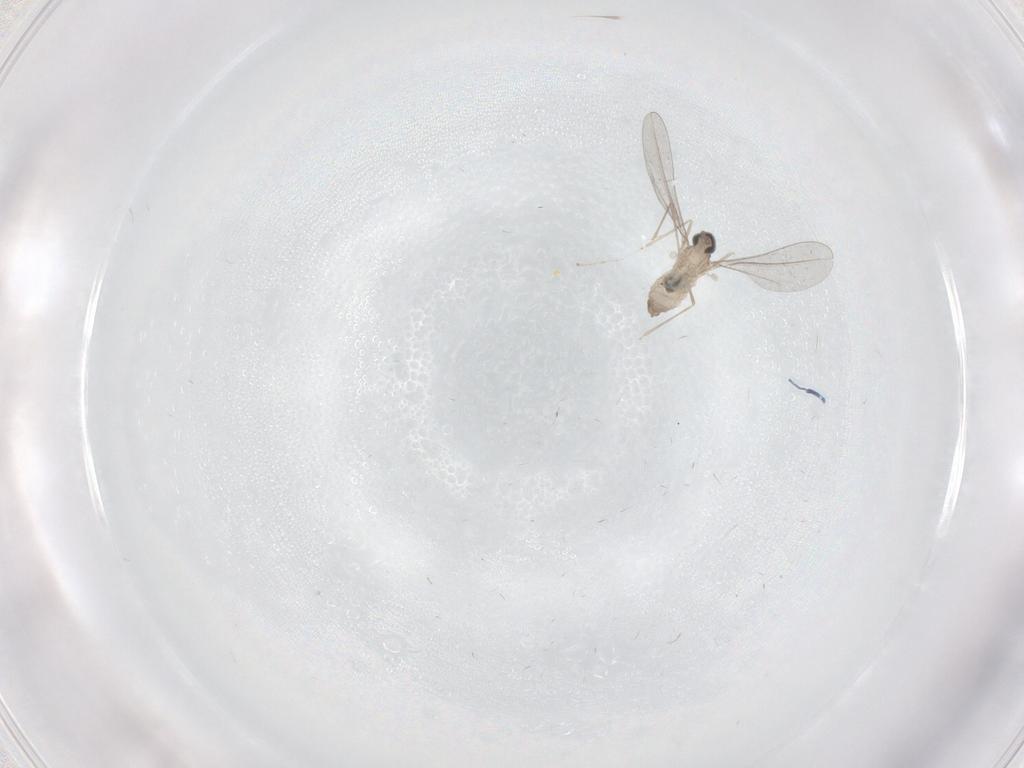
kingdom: Animalia
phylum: Arthropoda
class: Insecta
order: Diptera
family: Cecidomyiidae
